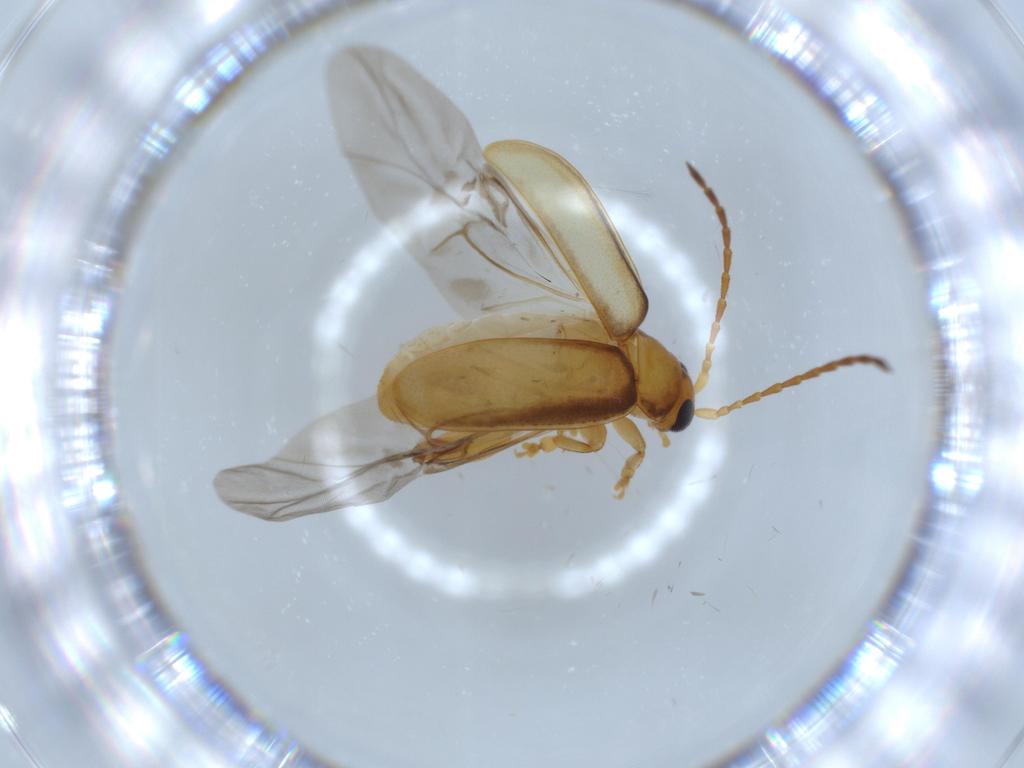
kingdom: Animalia
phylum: Arthropoda
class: Insecta
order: Coleoptera
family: Chrysomelidae
